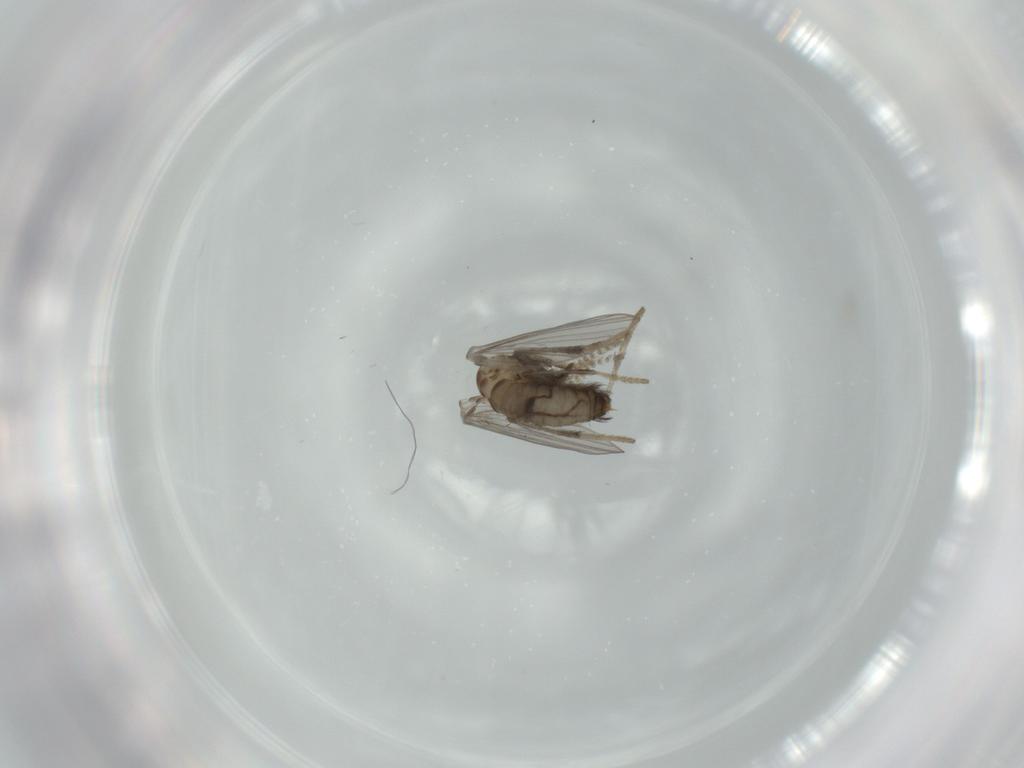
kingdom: Animalia
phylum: Arthropoda
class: Insecta
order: Diptera
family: Psychodidae
